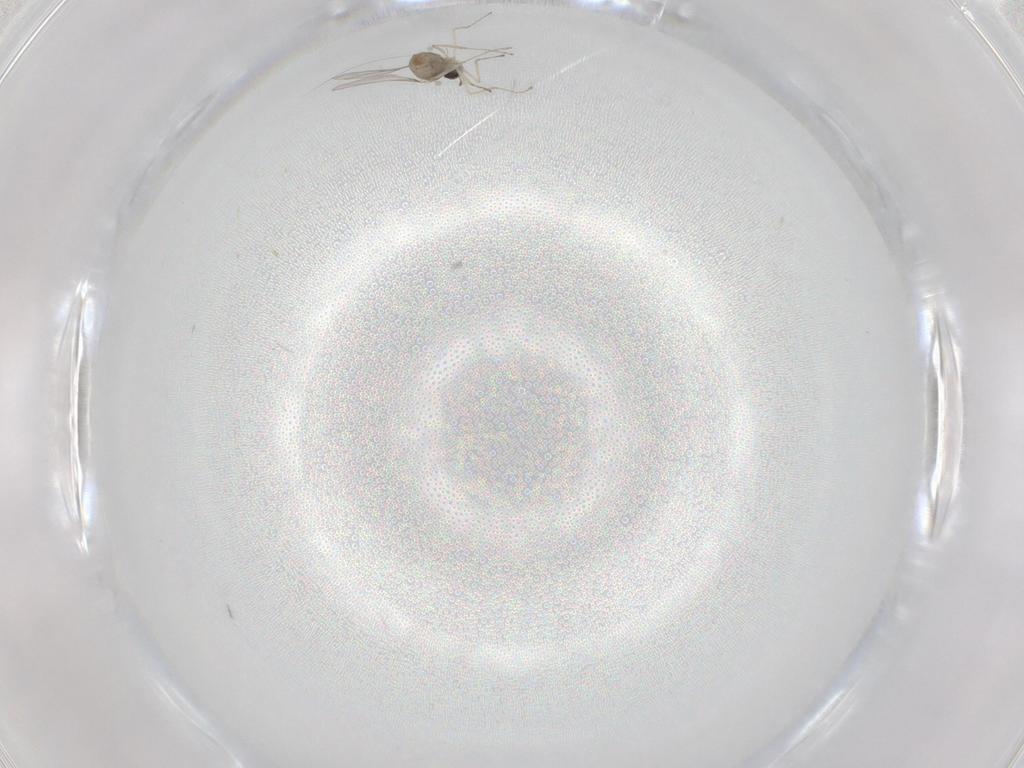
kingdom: Animalia
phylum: Arthropoda
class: Insecta
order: Diptera
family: Cecidomyiidae
